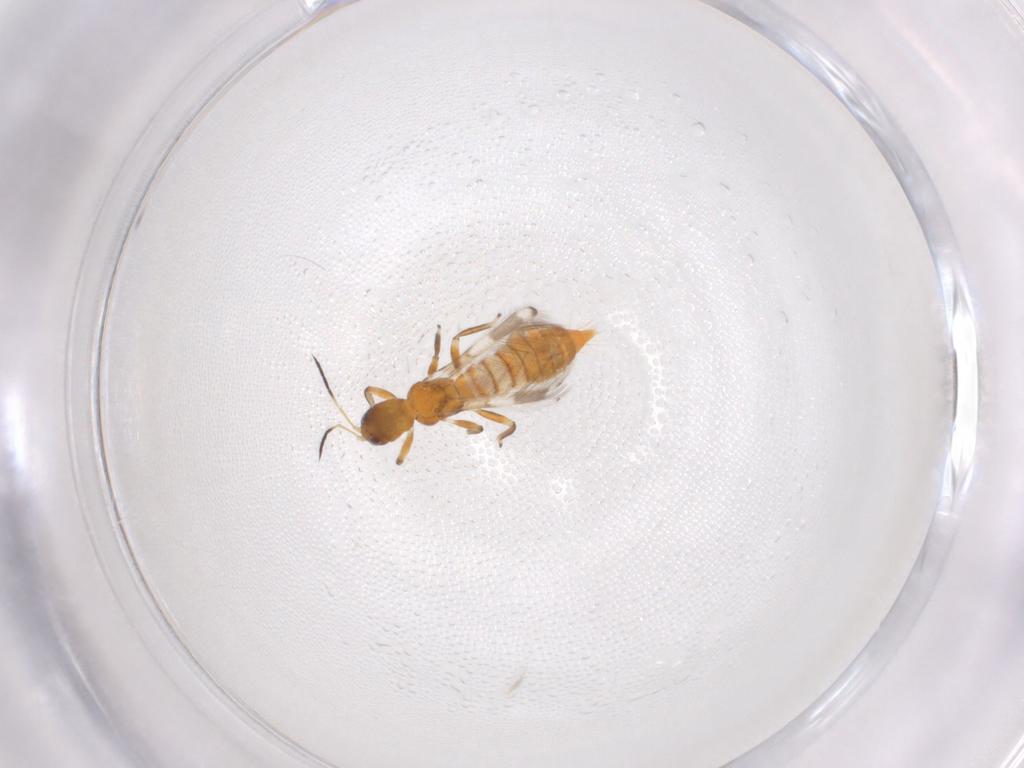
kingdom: Animalia
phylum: Arthropoda
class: Insecta
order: Thysanoptera
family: Aeolothripidae
